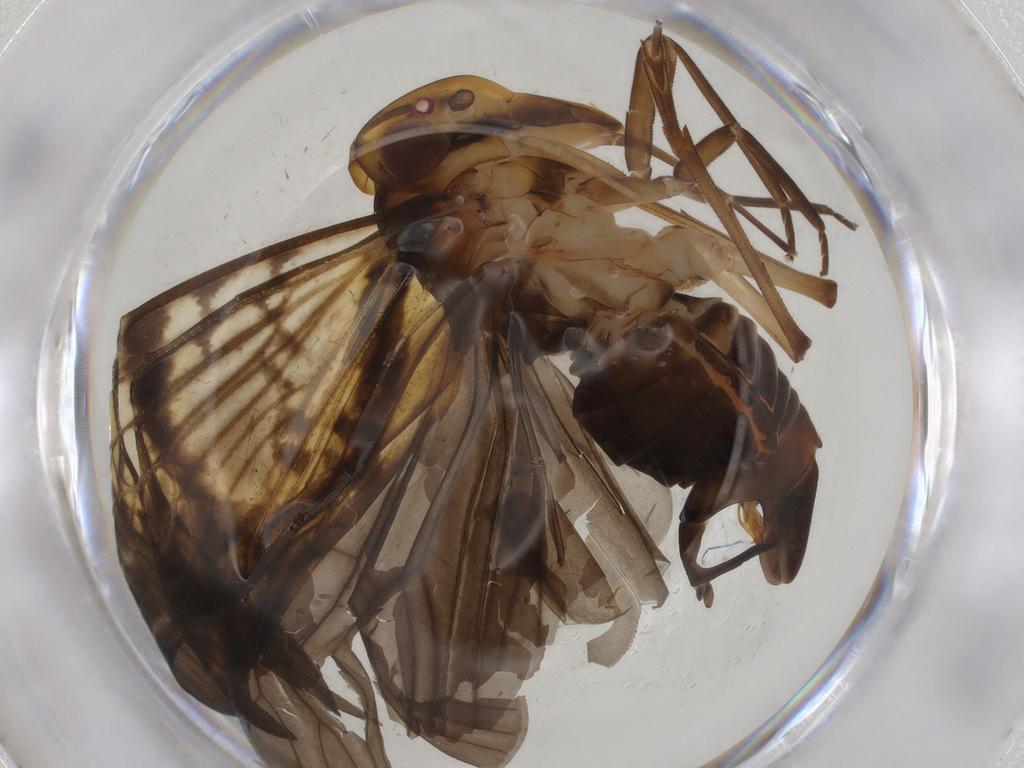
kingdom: Animalia
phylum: Arthropoda
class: Insecta
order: Hemiptera
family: Cixiidae
